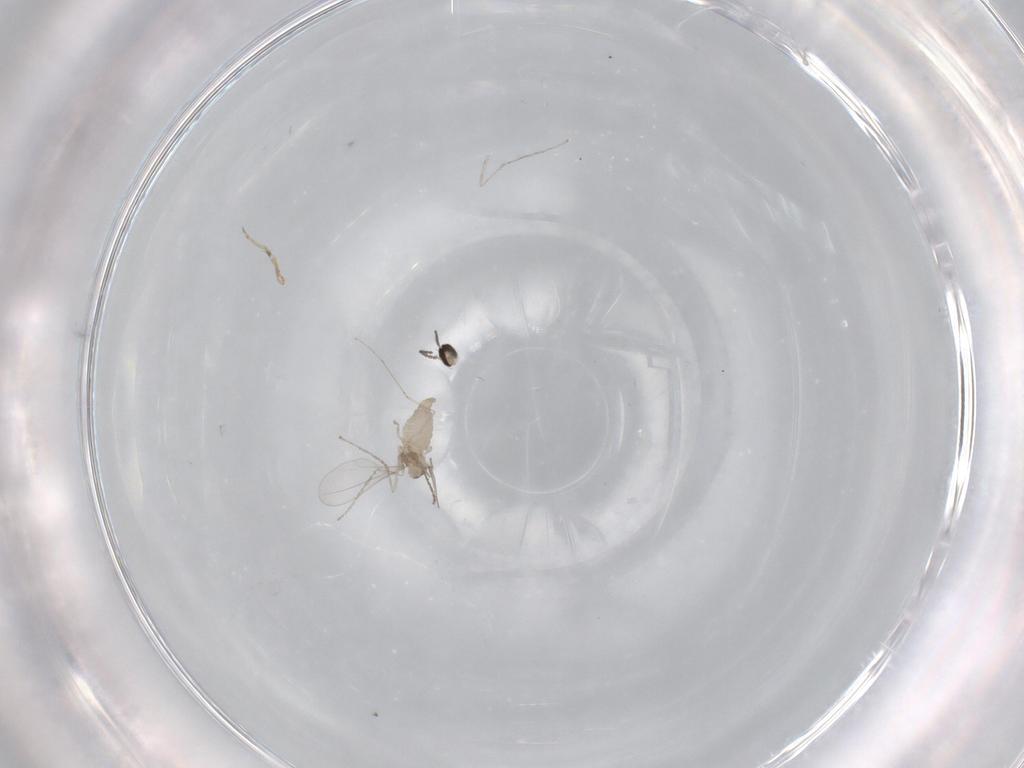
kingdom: Animalia
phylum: Arthropoda
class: Insecta
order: Diptera
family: Cecidomyiidae
